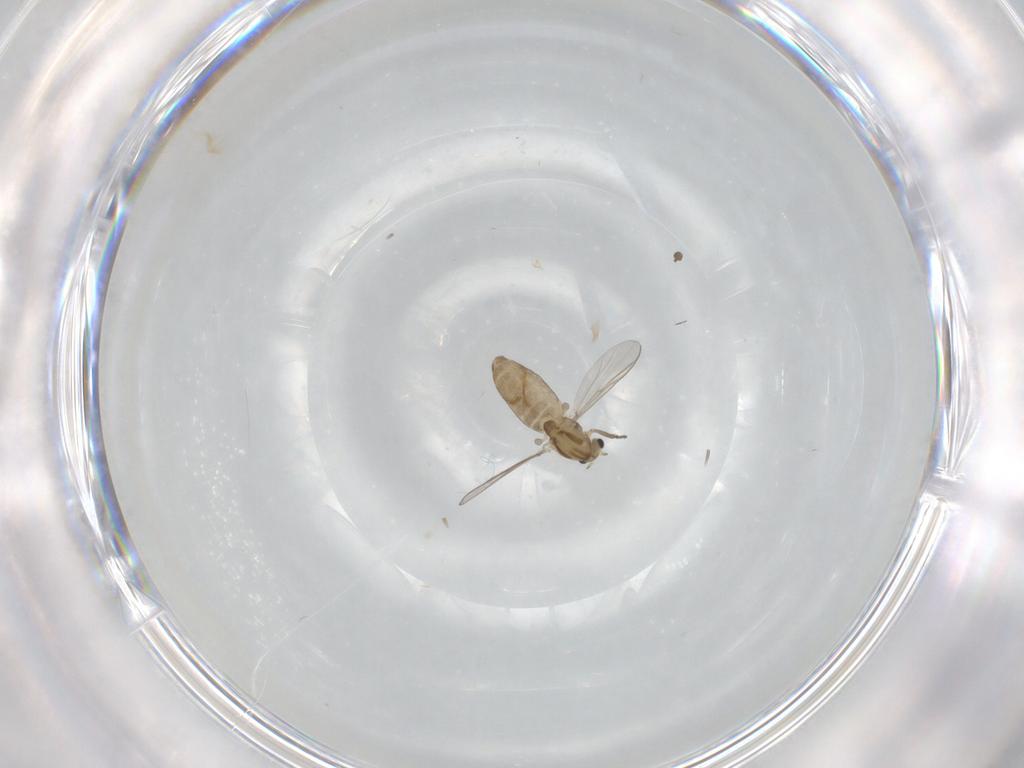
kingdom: Animalia
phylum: Arthropoda
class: Insecta
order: Diptera
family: Chironomidae
